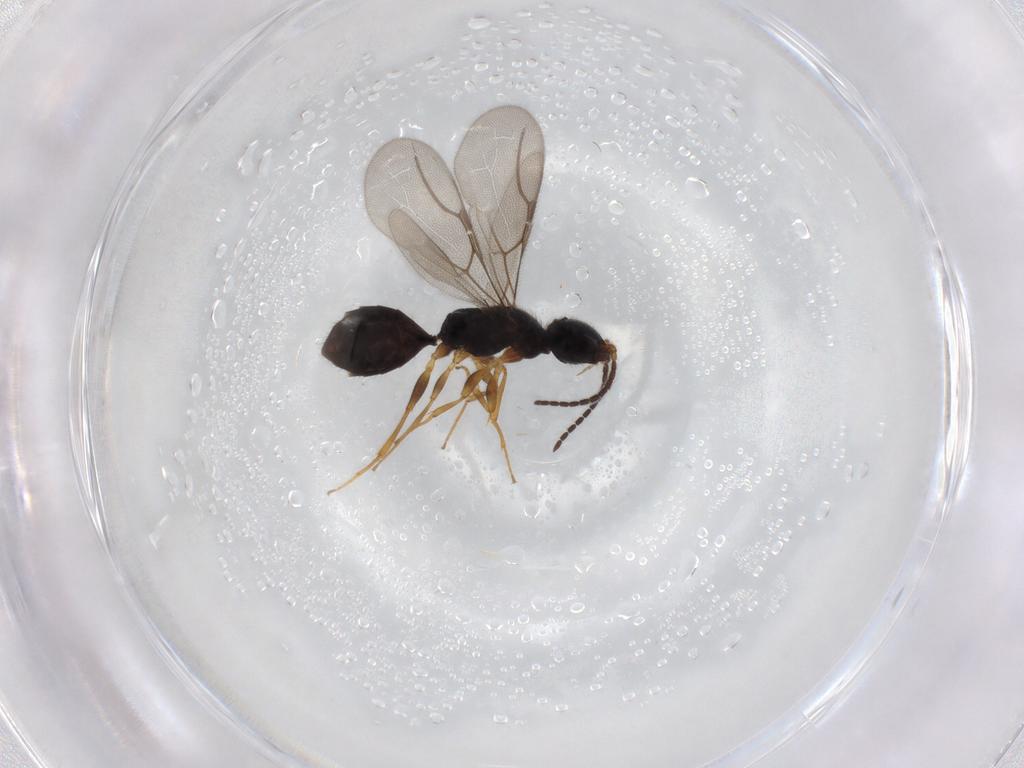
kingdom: Animalia
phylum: Arthropoda
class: Insecta
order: Hymenoptera
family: Bethylidae
